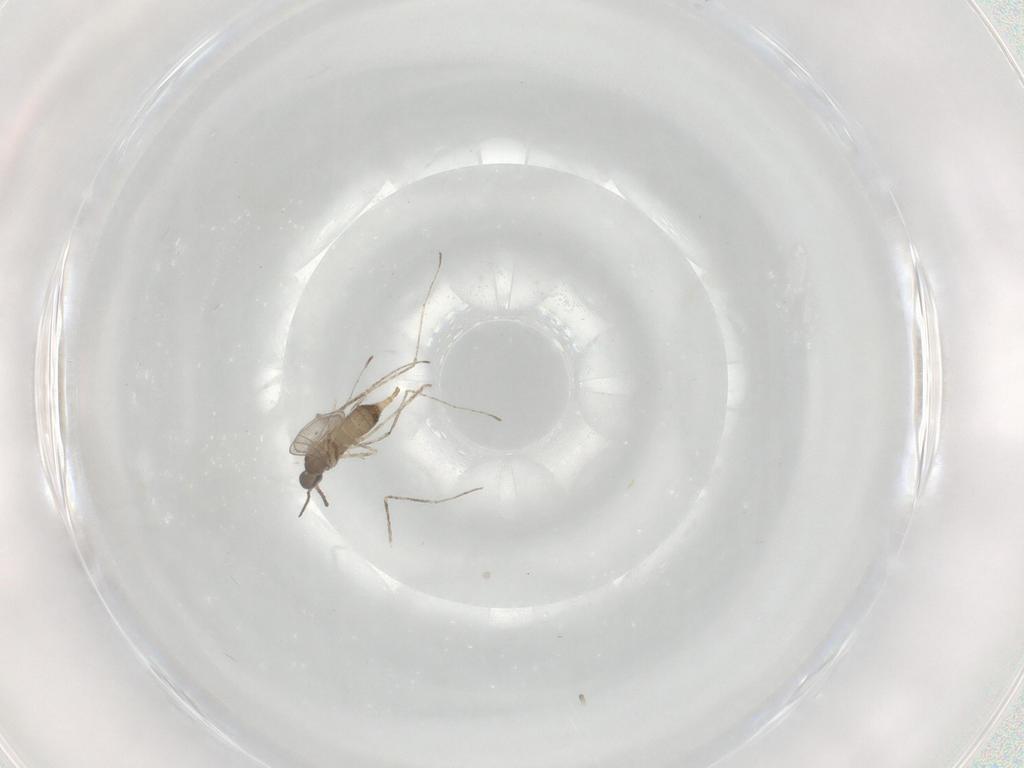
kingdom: Animalia
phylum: Arthropoda
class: Insecta
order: Diptera
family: Cecidomyiidae
